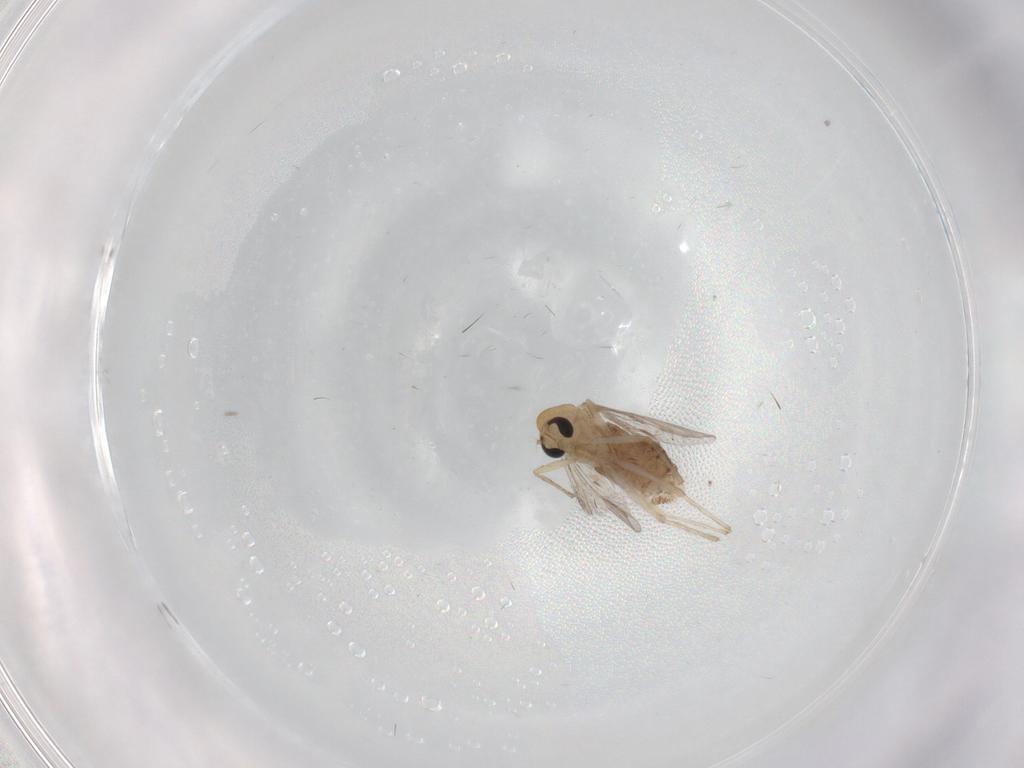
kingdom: Animalia
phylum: Arthropoda
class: Insecta
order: Diptera
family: Chironomidae
